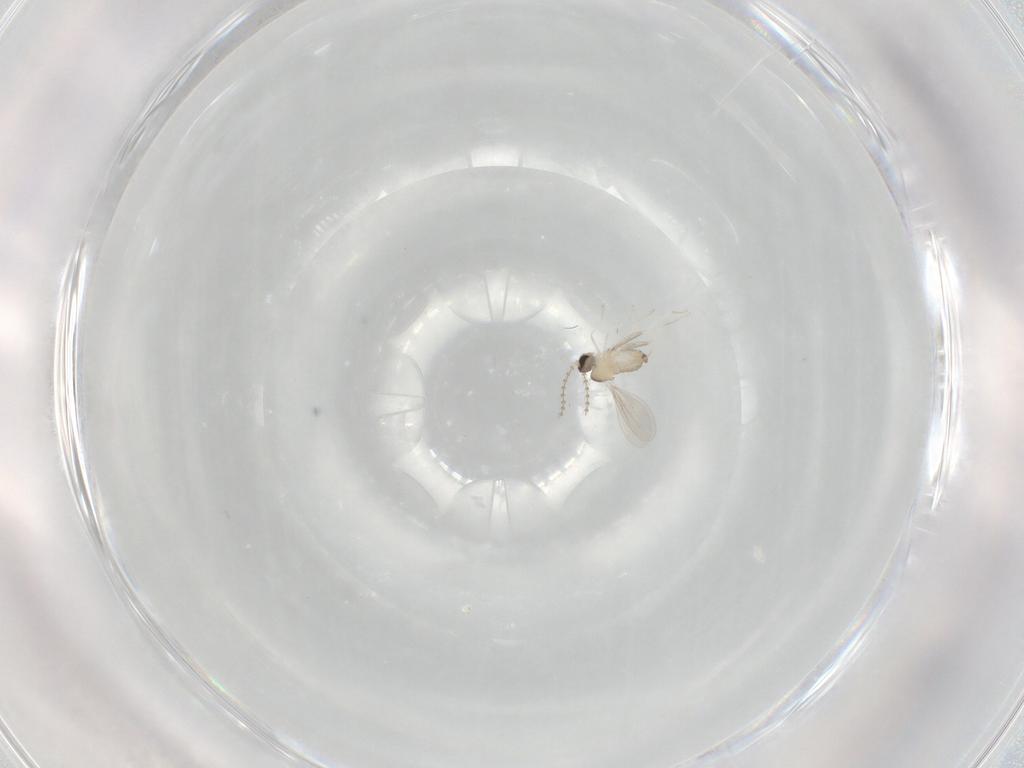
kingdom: Animalia
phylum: Arthropoda
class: Insecta
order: Diptera
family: Cecidomyiidae
